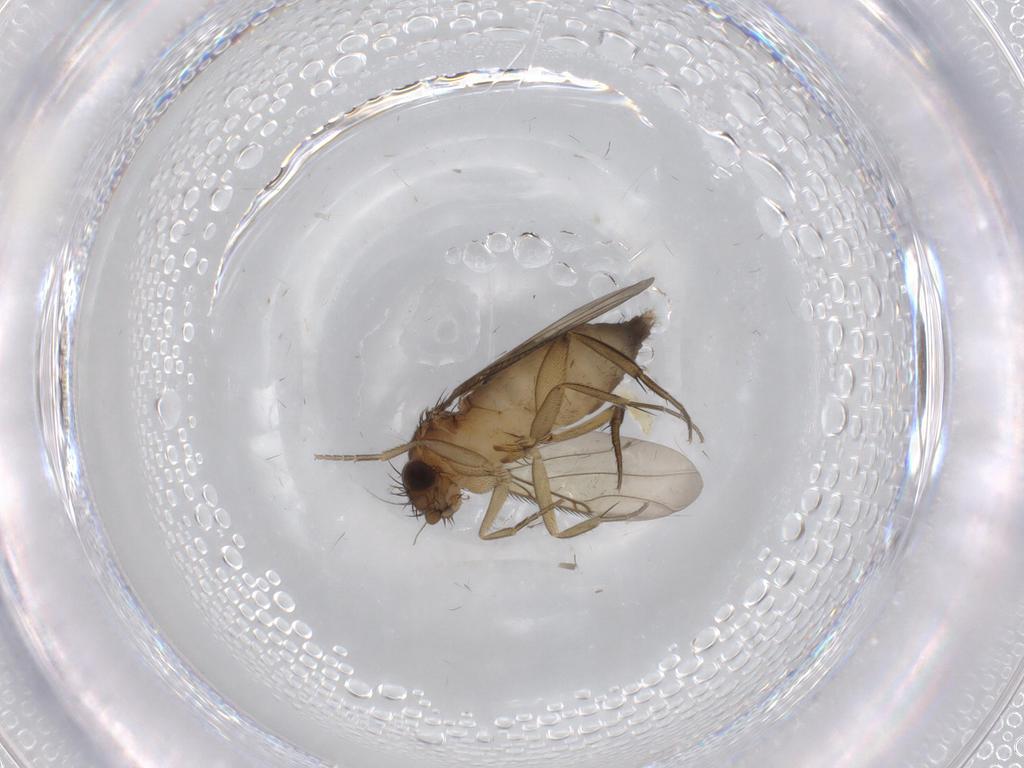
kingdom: Animalia
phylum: Arthropoda
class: Insecta
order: Diptera
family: Phoridae
